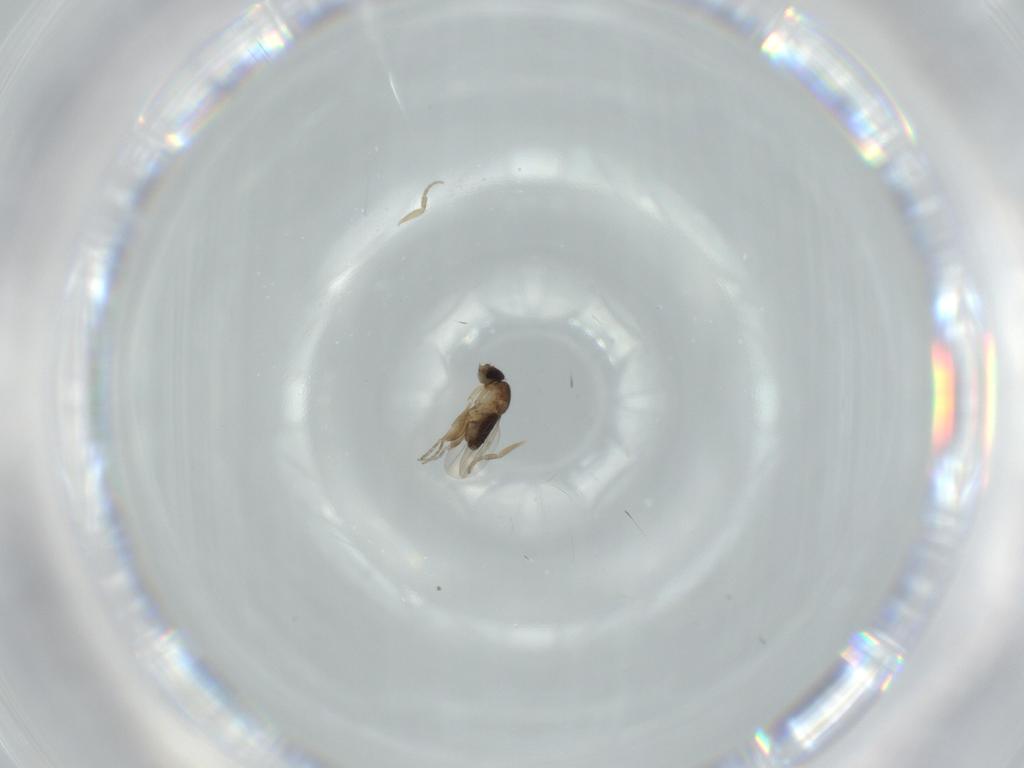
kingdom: Animalia
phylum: Arthropoda
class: Insecta
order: Diptera
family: Phoridae
